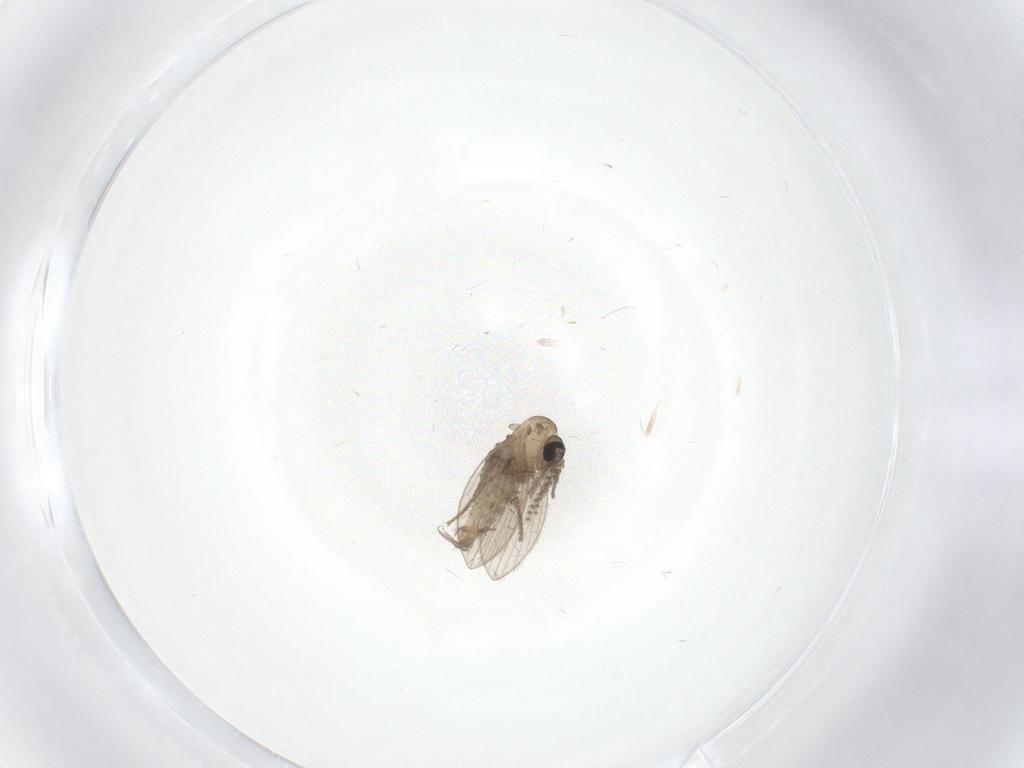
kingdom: Animalia
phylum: Arthropoda
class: Insecta
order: Diptera
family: Psychodidae
